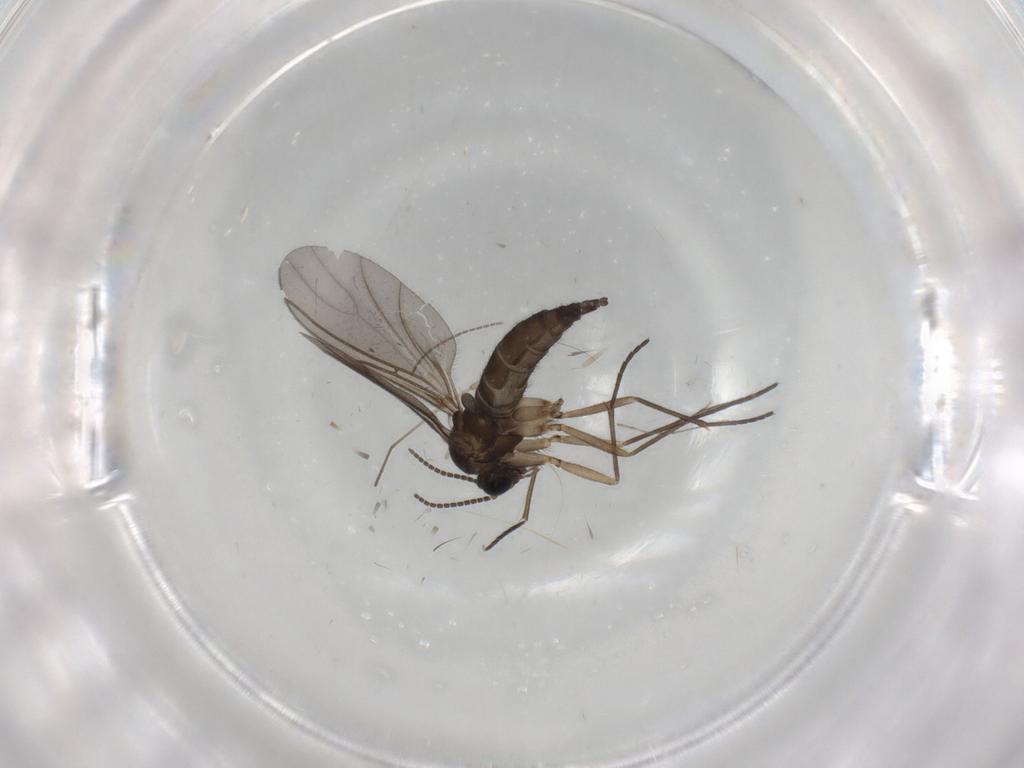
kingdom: Animalia
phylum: Arthropoda
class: Insecta
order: Diptera
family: Sciaridae
